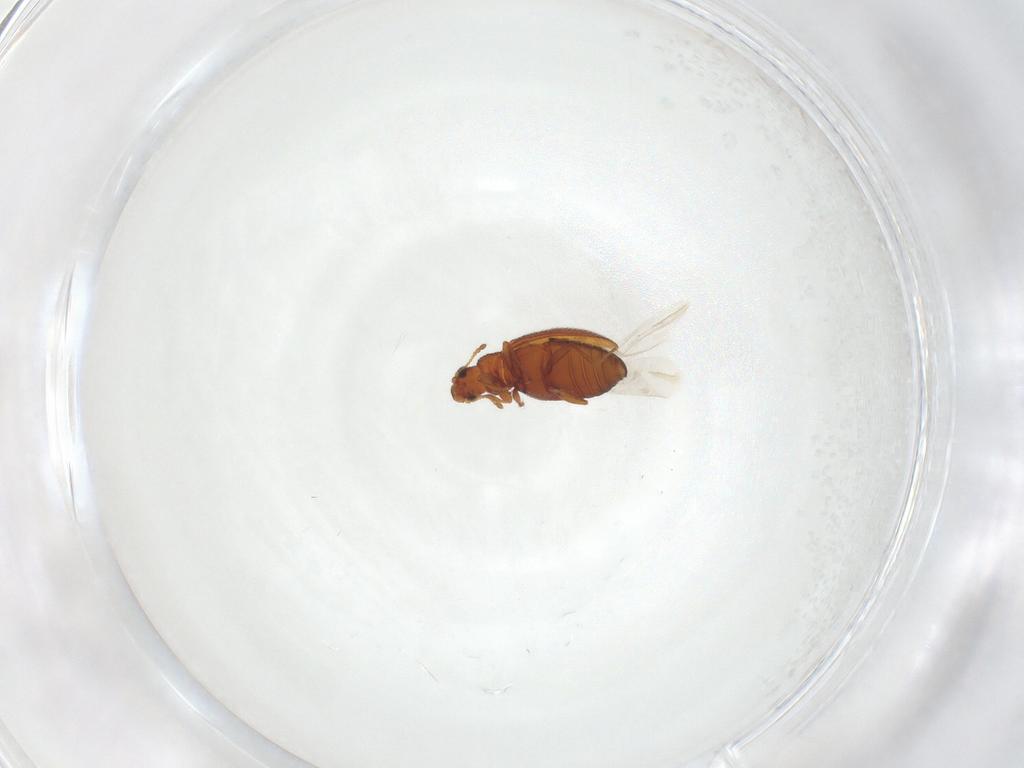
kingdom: Animalia
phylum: Arthropoda
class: Insecta
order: Coleoptera
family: Latridiidae
